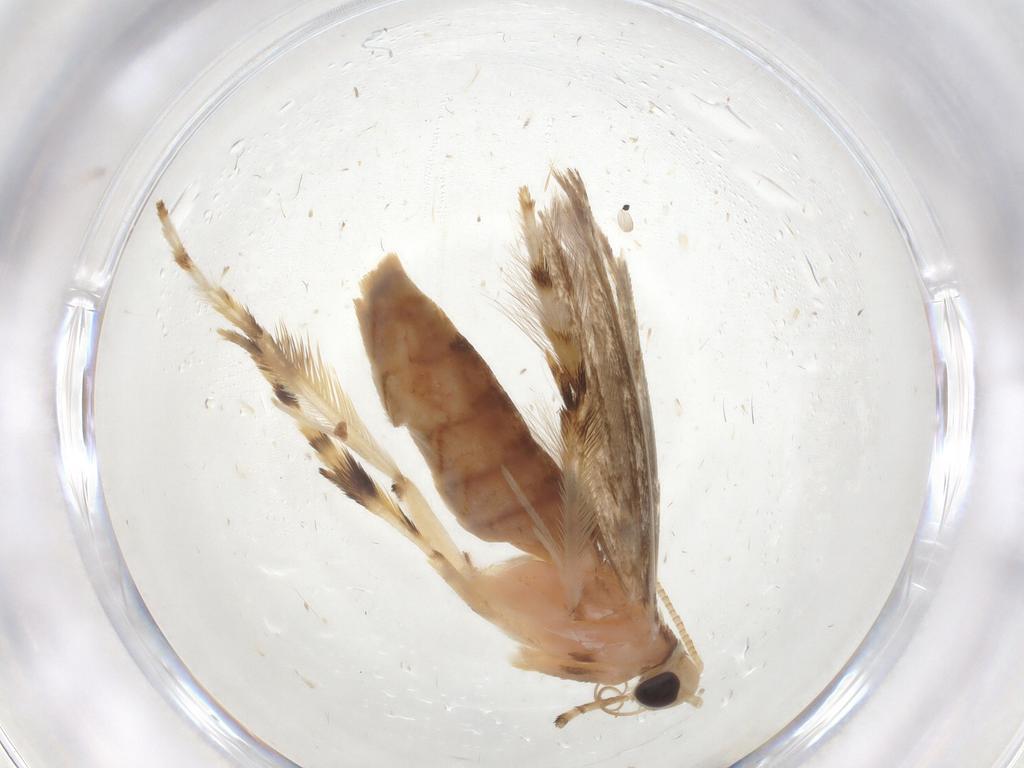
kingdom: Animalia
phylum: Arthropoda
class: Insecta
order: Lepidoptera
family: Gracillariidae
